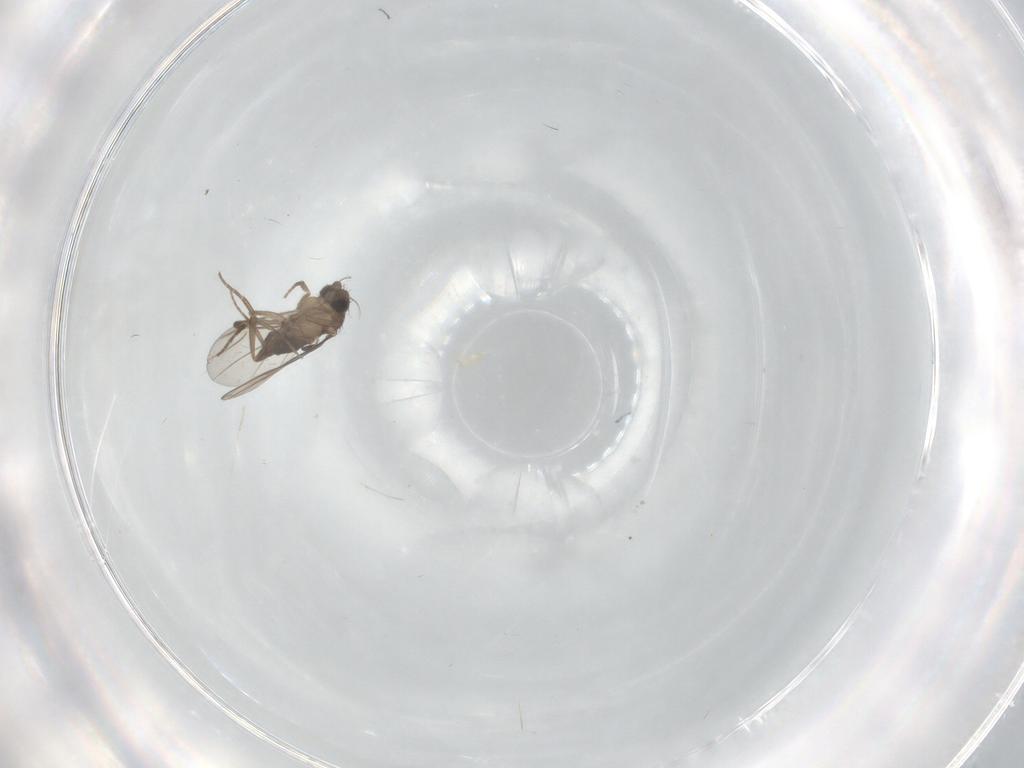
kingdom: Animalia
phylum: Arthropoda
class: Insecta
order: Diptera
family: Phoridae
